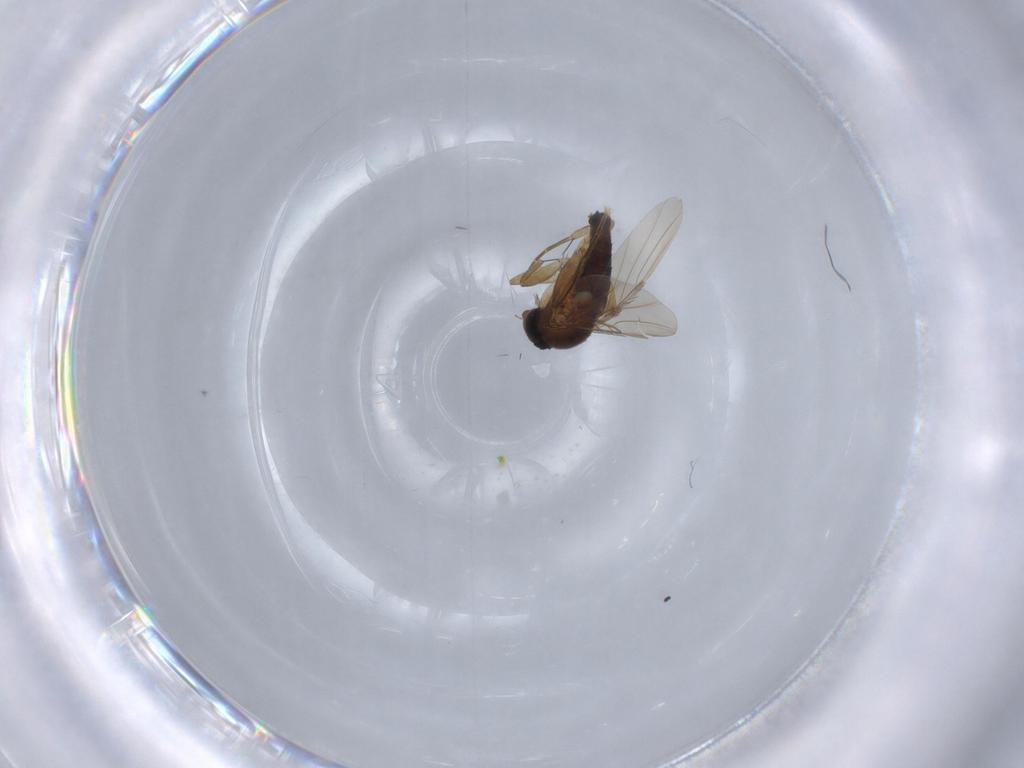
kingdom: Animalia
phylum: Arthropoda
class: Insecta
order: Diptera
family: Phoridae
